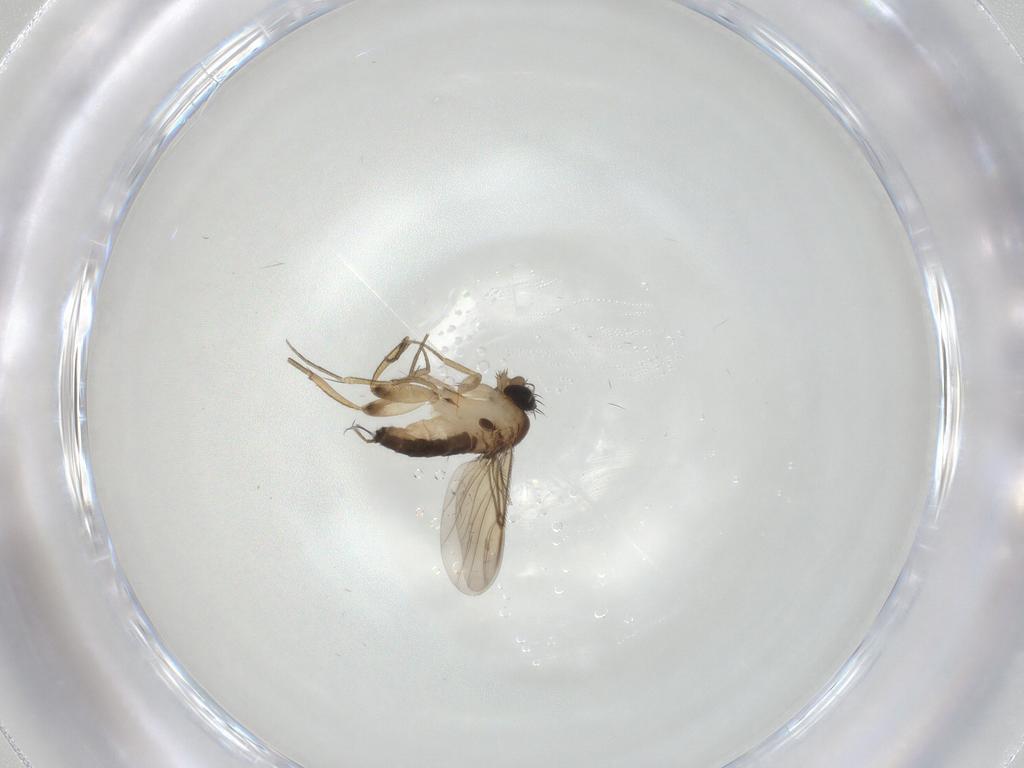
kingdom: Animalia
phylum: Arthropoda
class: Insecta
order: Diptera
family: Phoridae
